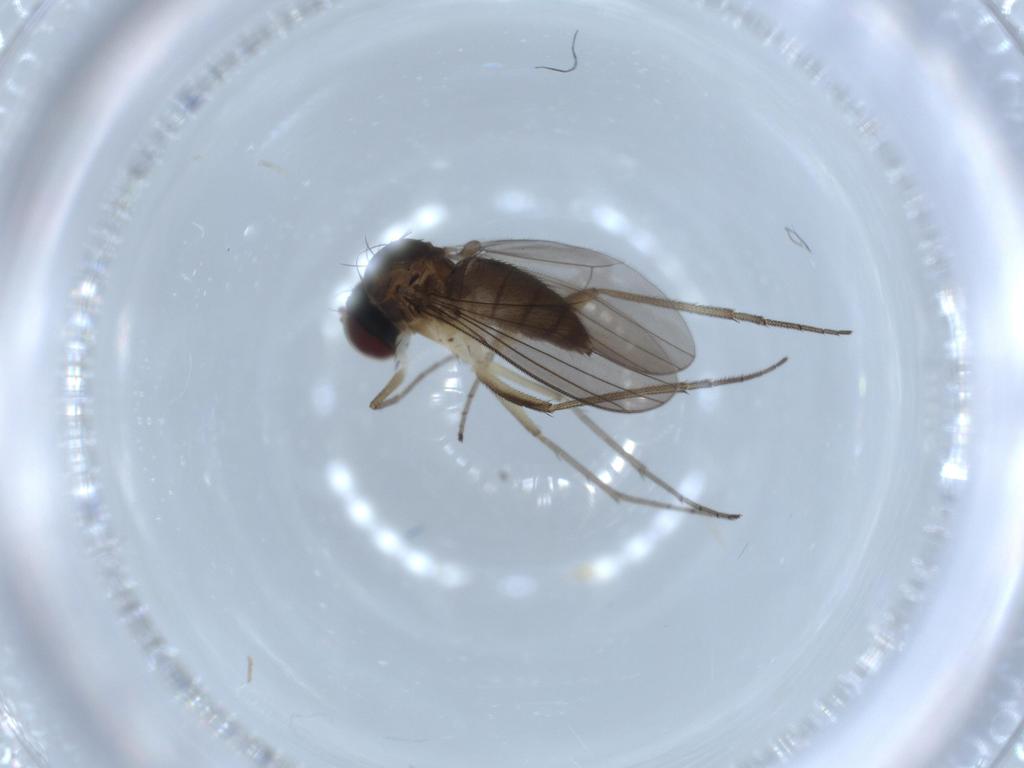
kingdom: Animalia
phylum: Arthropoda
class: Insecta
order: Diptera
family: Dolichopodidae
